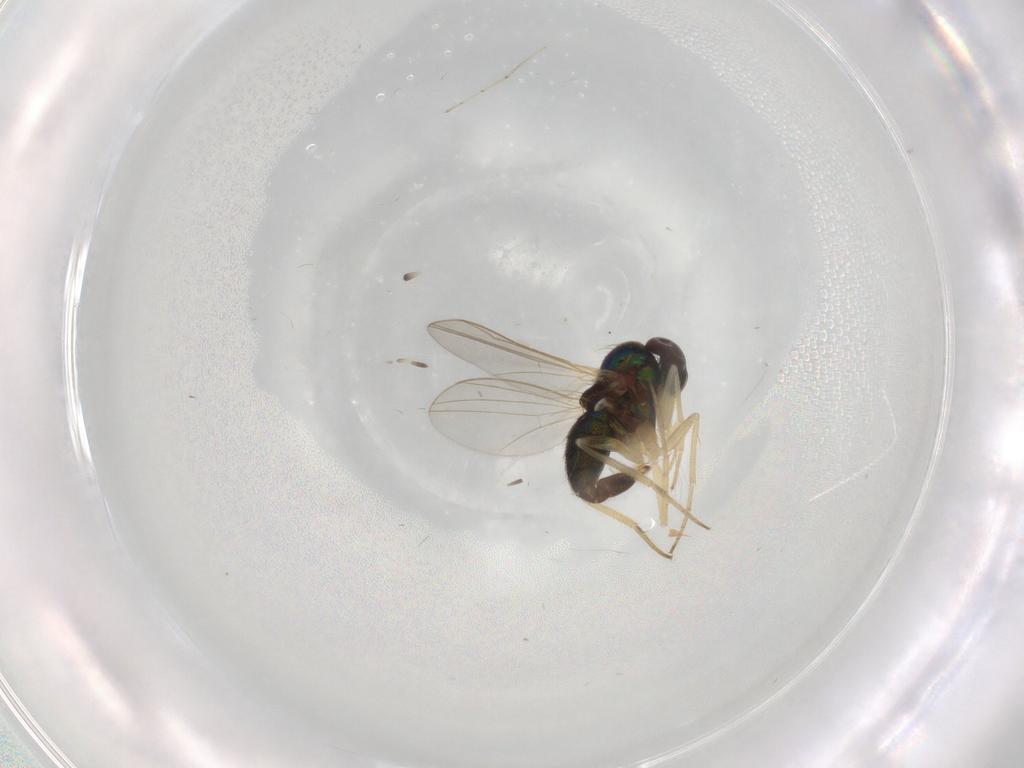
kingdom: Animalia
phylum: Arthropoda
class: Insecta
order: Diptera
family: Dolichopodidae
